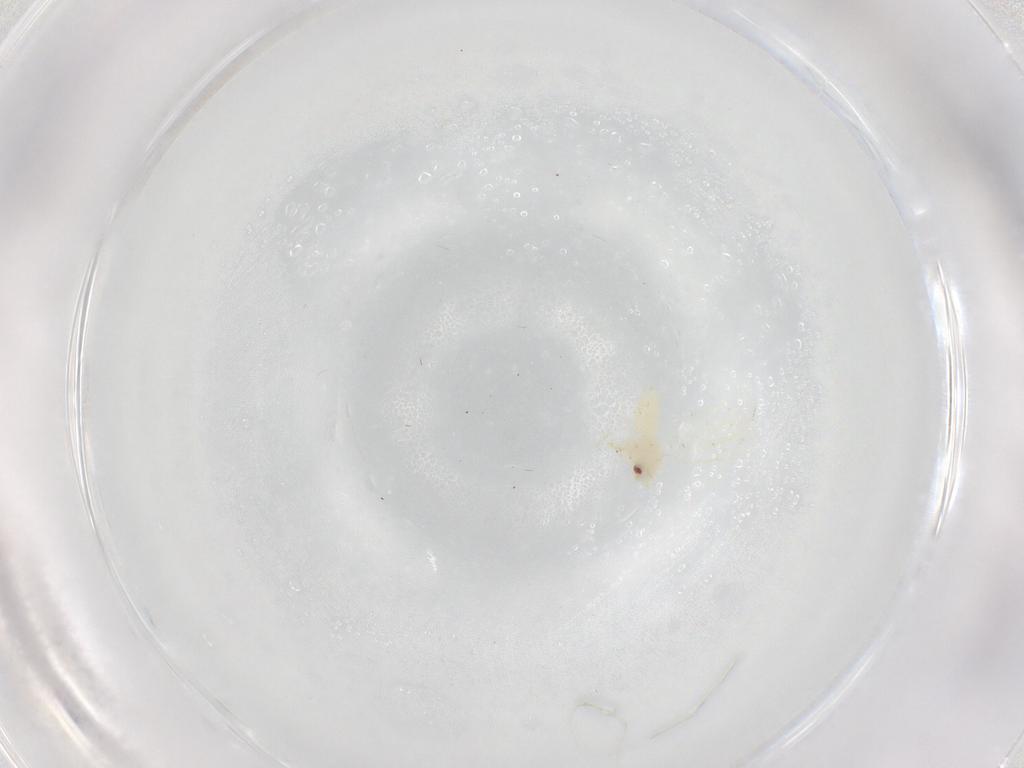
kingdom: Animalia
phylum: Arthropoda
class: Insecta
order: Hemiptera
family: Aleyrodidae
